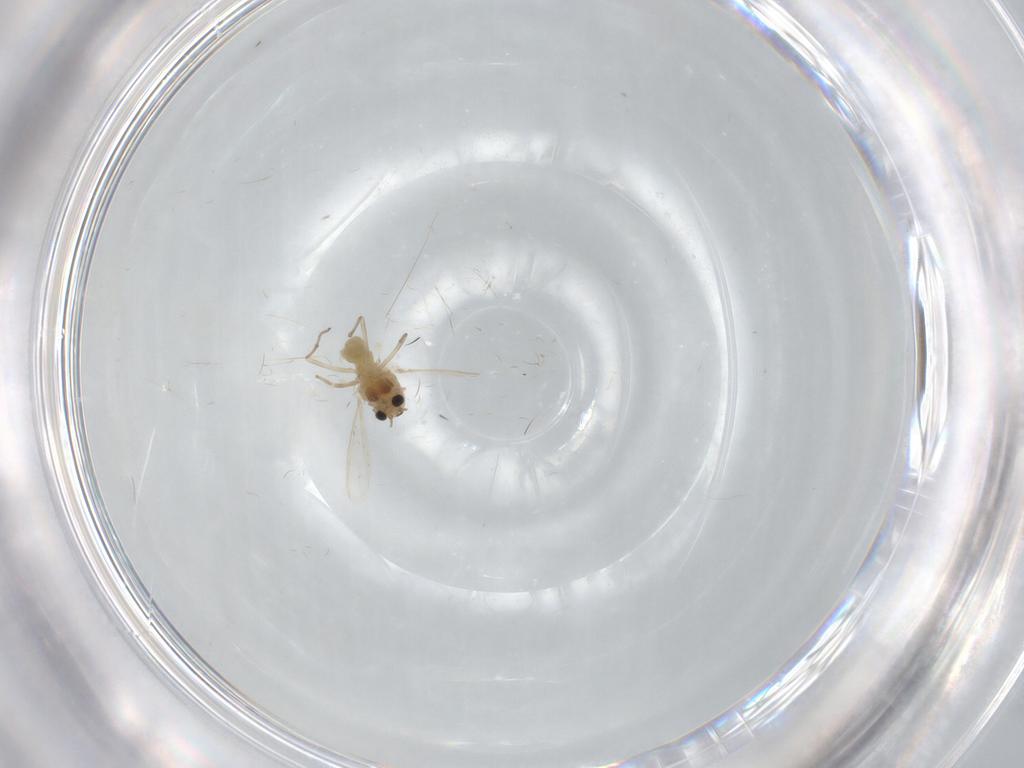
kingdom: Animalia
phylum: Arthropoda
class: Insecta
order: Diptera
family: Chironomidae
